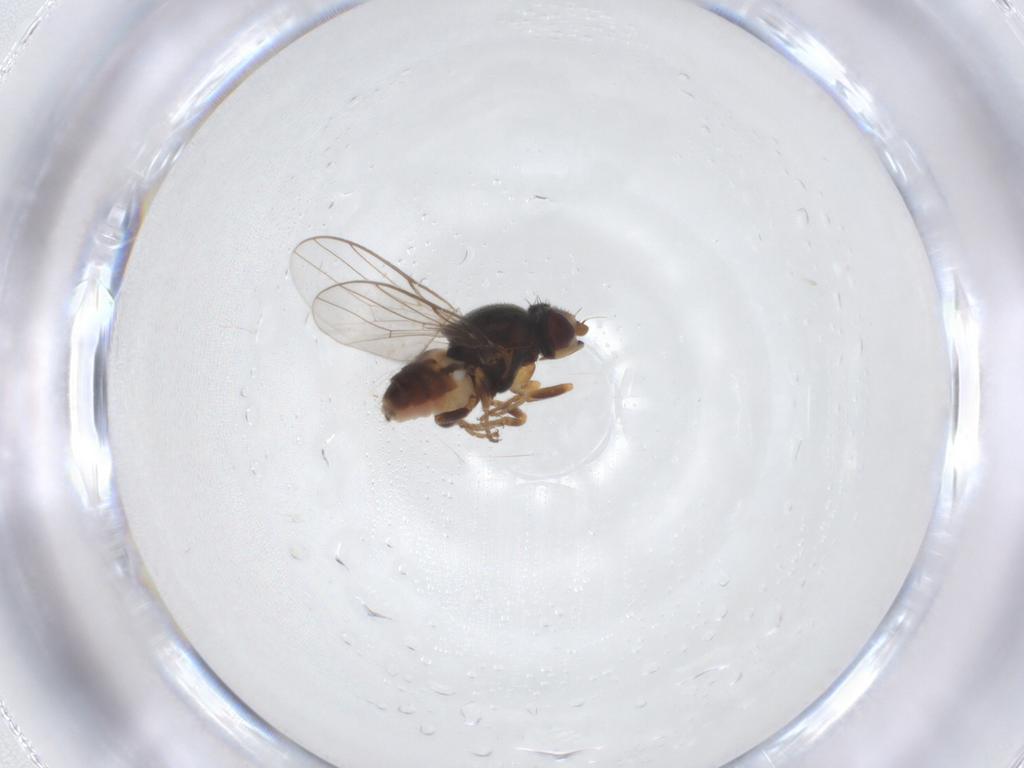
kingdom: Animalia
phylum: Arthropoda
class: Insecta
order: Diptera
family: Chloropidae
